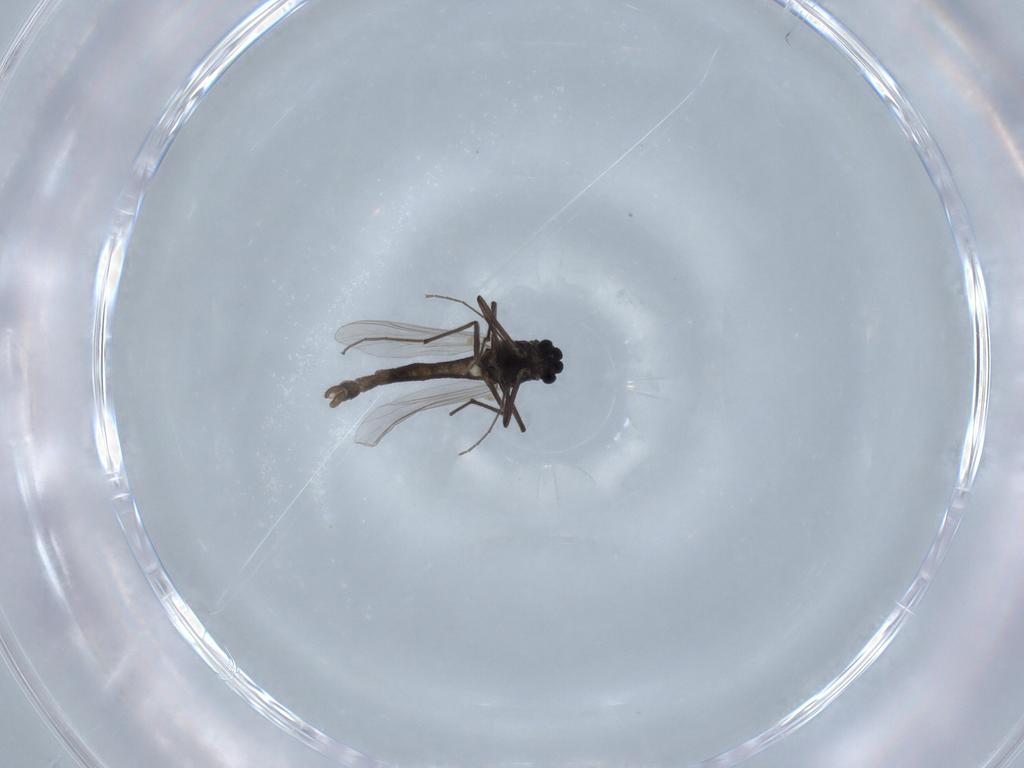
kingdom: Animalia
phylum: Arthropoda
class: Insecta
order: Diptera
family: Chironomidae
